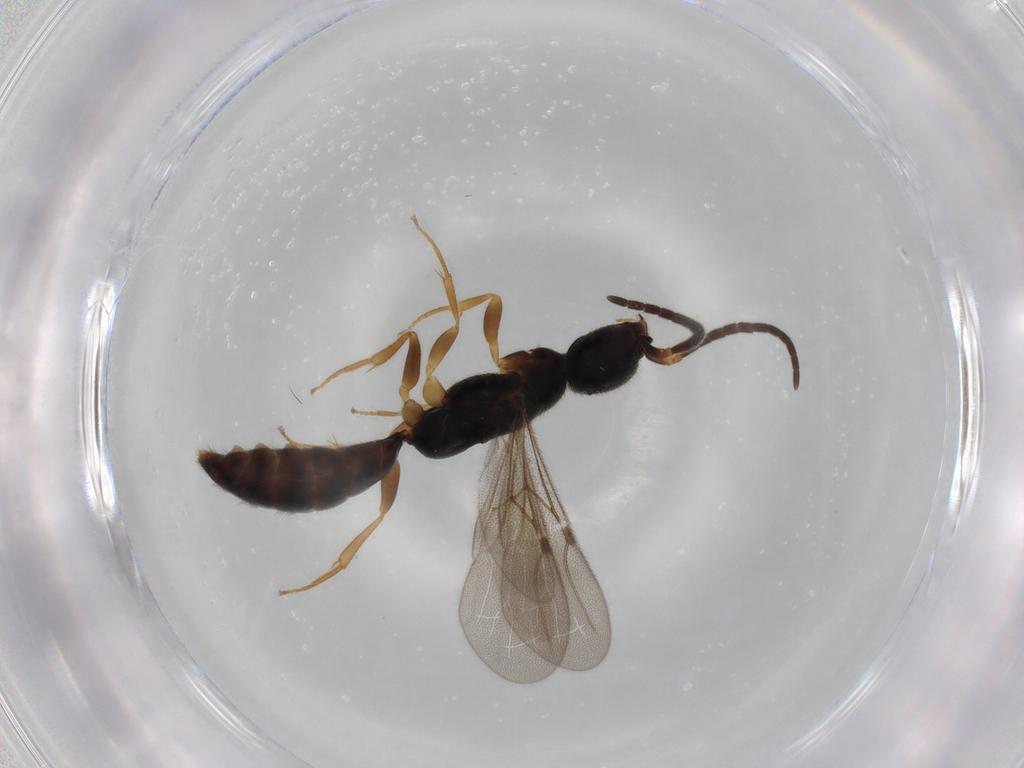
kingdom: Animalia
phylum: Arthropoda
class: Insecta
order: Hymenoptera
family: Bethylidae
